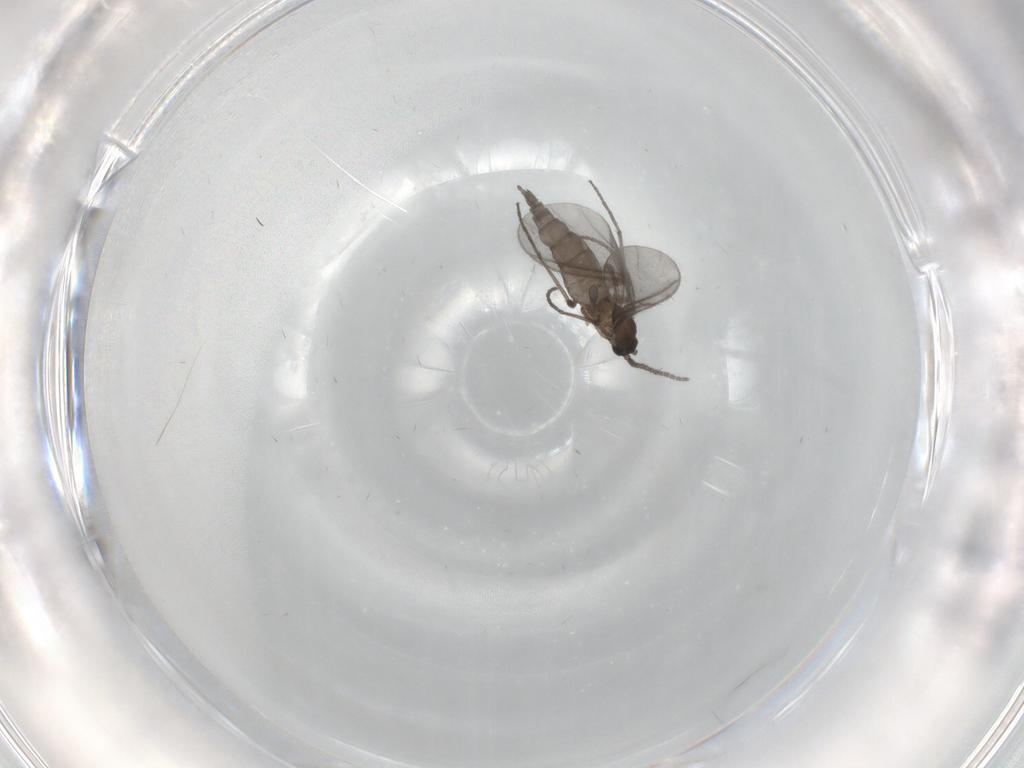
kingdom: Animalia
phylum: Arthropoda
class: Insecta
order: Diptera
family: Sciaridae
